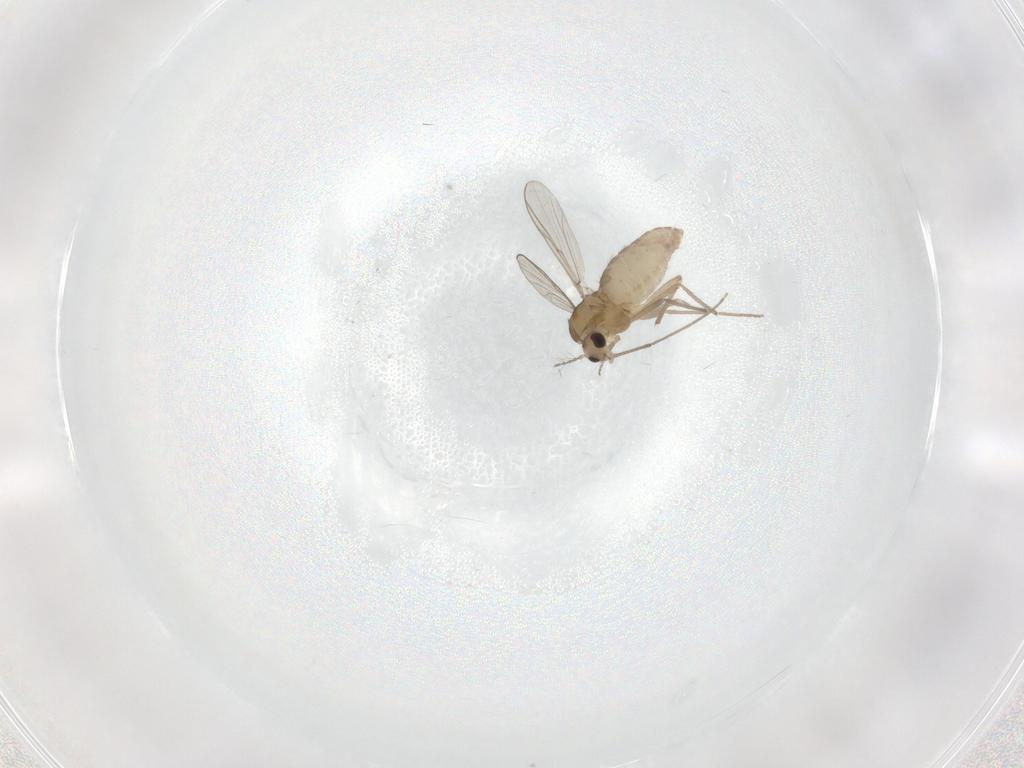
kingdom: Animalia
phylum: Arthropoda
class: Insecta
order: Diptera
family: Chironomidae
